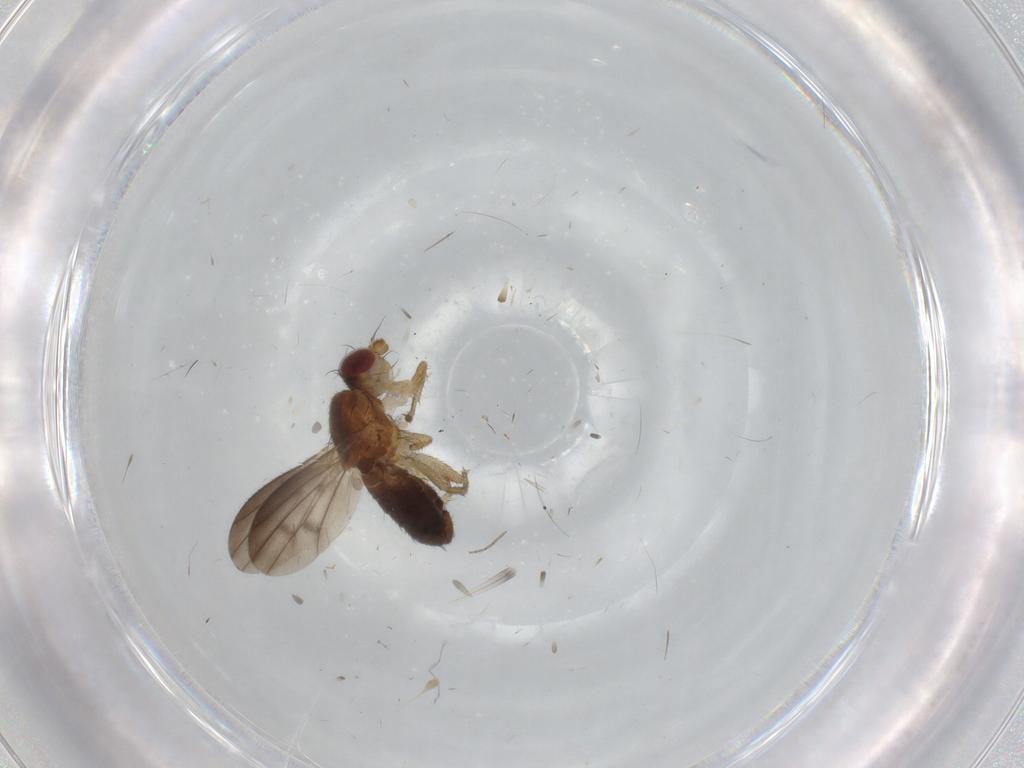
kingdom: Animalia
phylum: Arthropoda
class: Insecta
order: Diptera
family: Heleomyzidae
